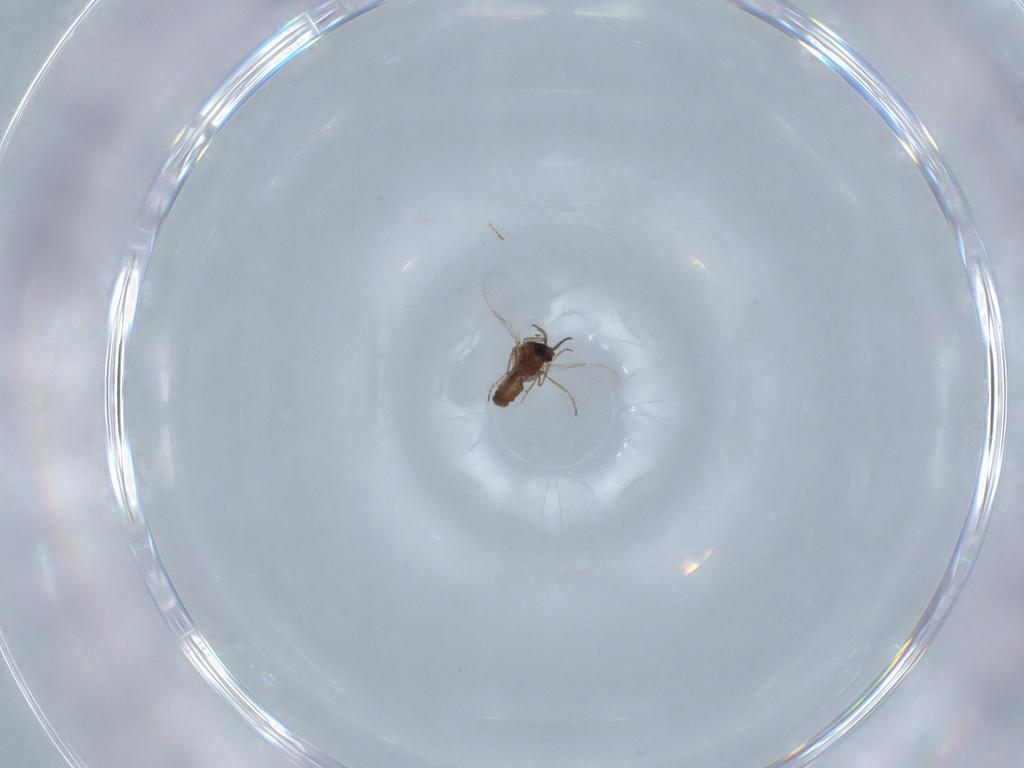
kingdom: Animalia
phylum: Arthropoda
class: Insecta
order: Diptera
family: Ceratopogonidae
